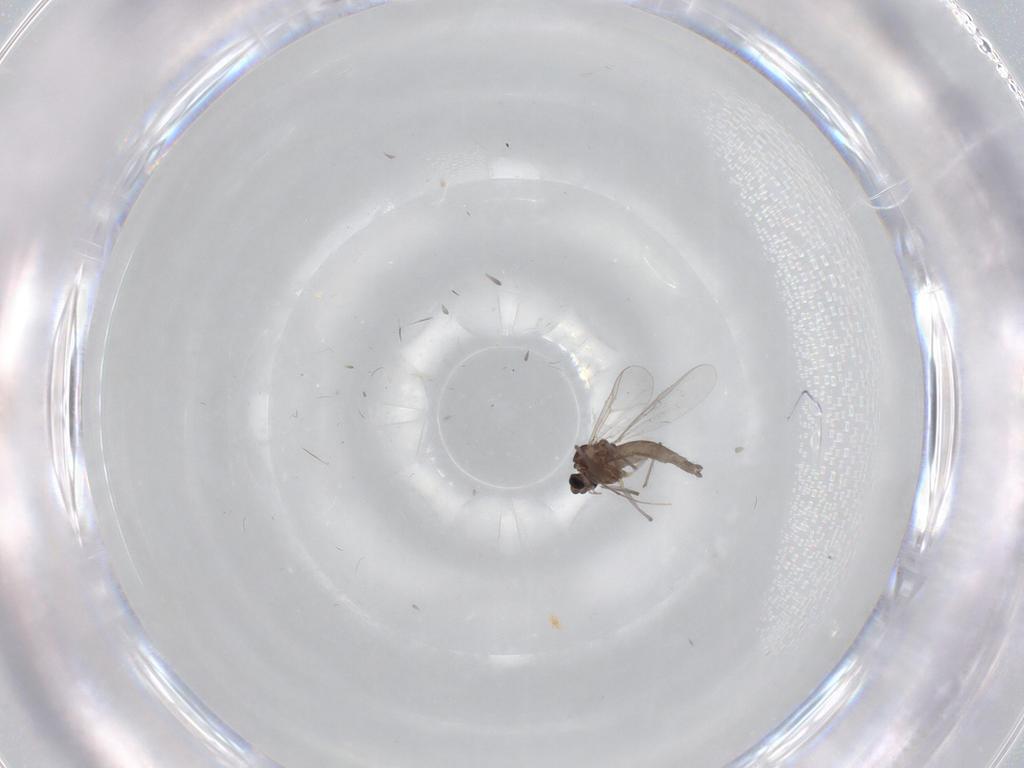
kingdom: Animalia
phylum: Arthropoda
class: Insecta
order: Diptera
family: Chironomidae
